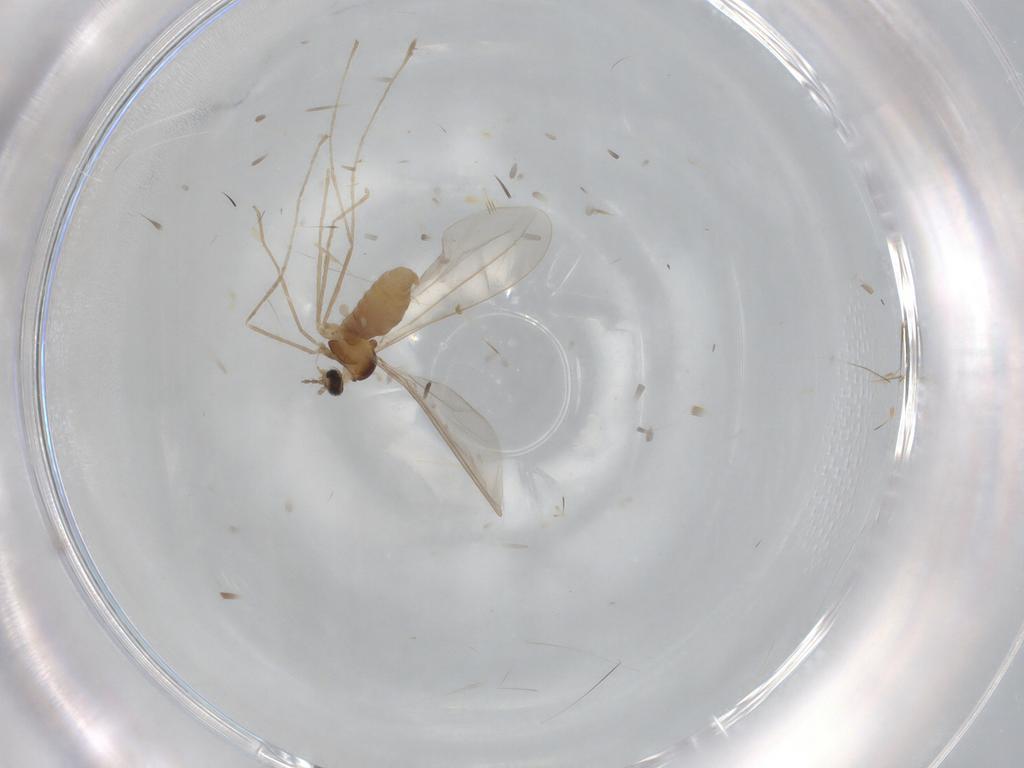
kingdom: Animalia
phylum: Arthropoda
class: Insecta
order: Diptera
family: Cecidomyiidae
